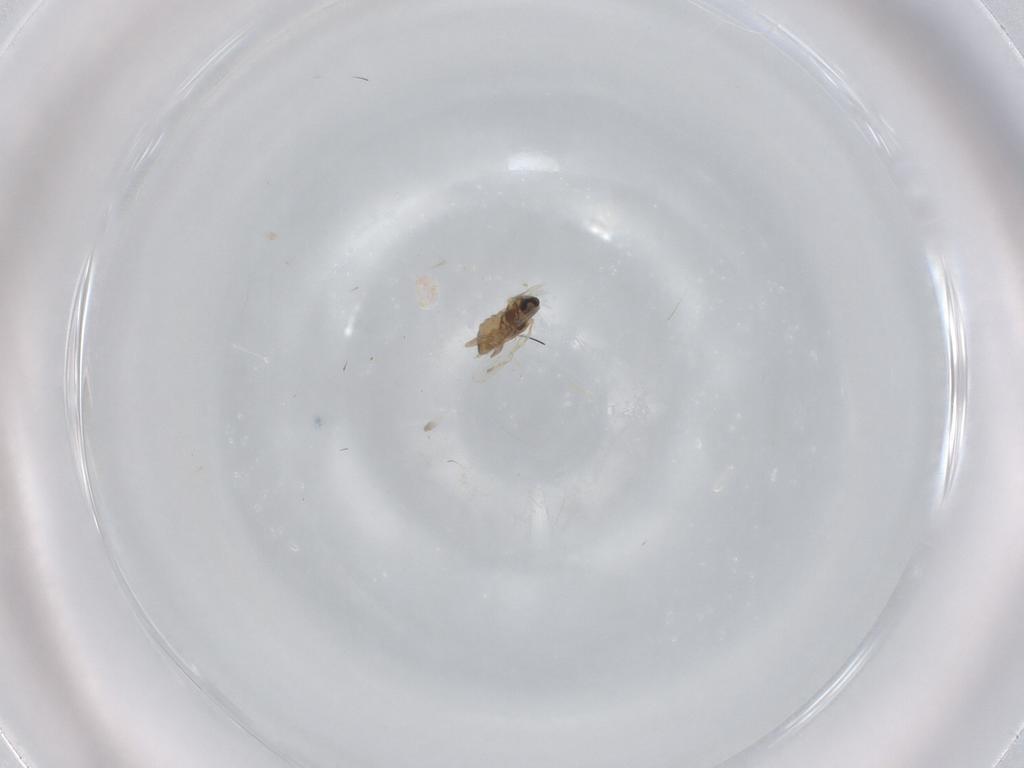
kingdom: Animalia
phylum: Arthropoda
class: Insecta
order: Diptera
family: Cecidomyiidae
